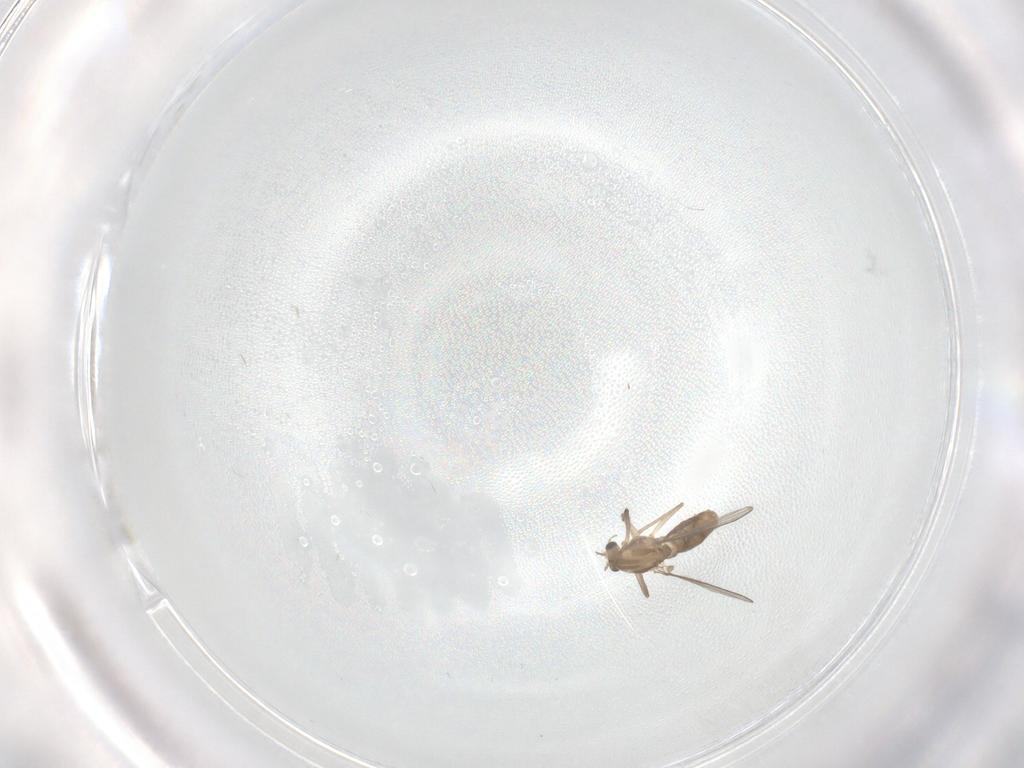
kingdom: Animalia
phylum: Arthropoda
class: Insecta
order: Diptera
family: Chironomidae
